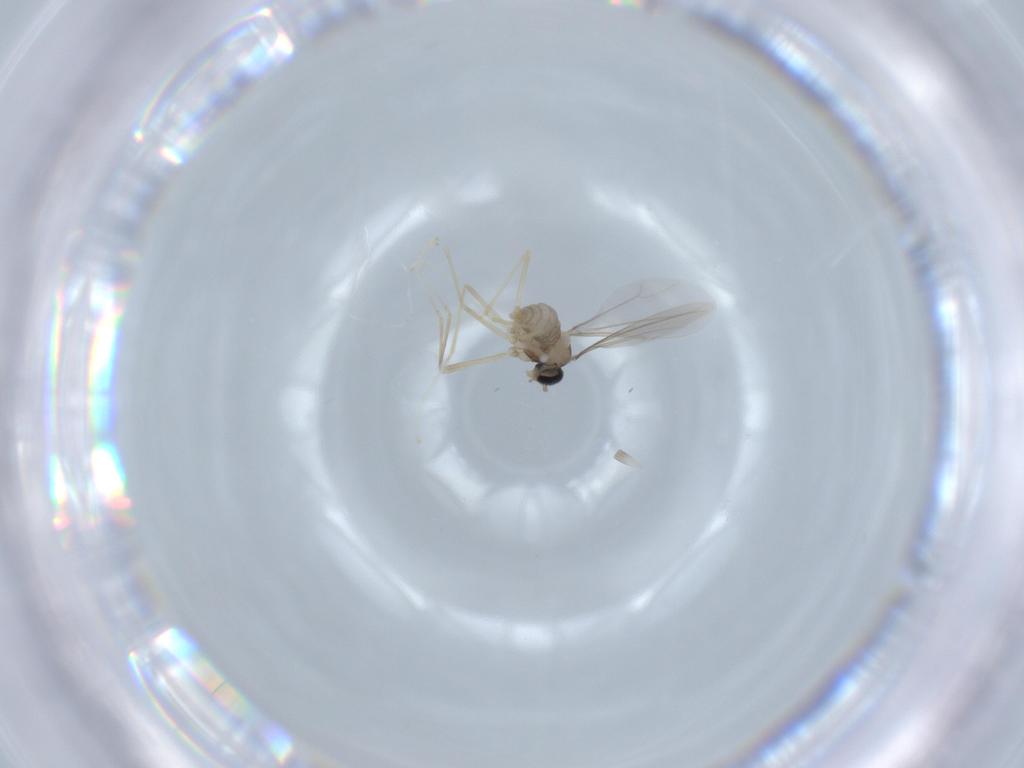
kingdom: Animalia
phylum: Arthropoda
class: Insecta
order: Diptera
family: Cecidomyiidae
